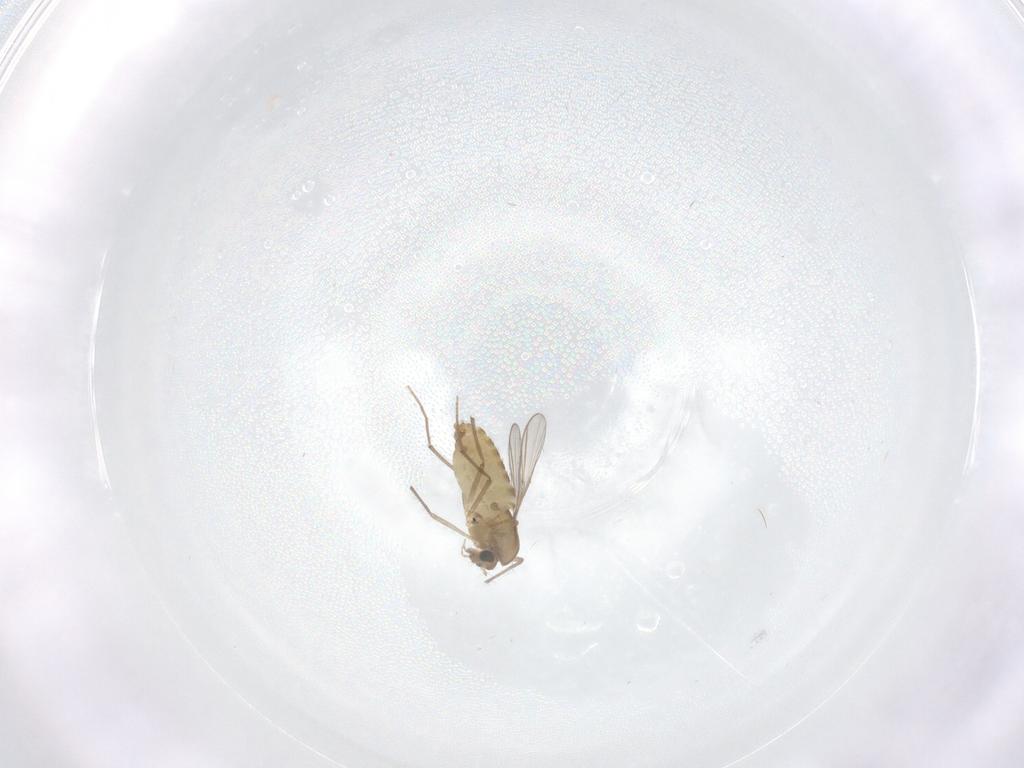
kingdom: Animalia
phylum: Arthropoda
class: Insecta
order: Diptera
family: Chironomidae
